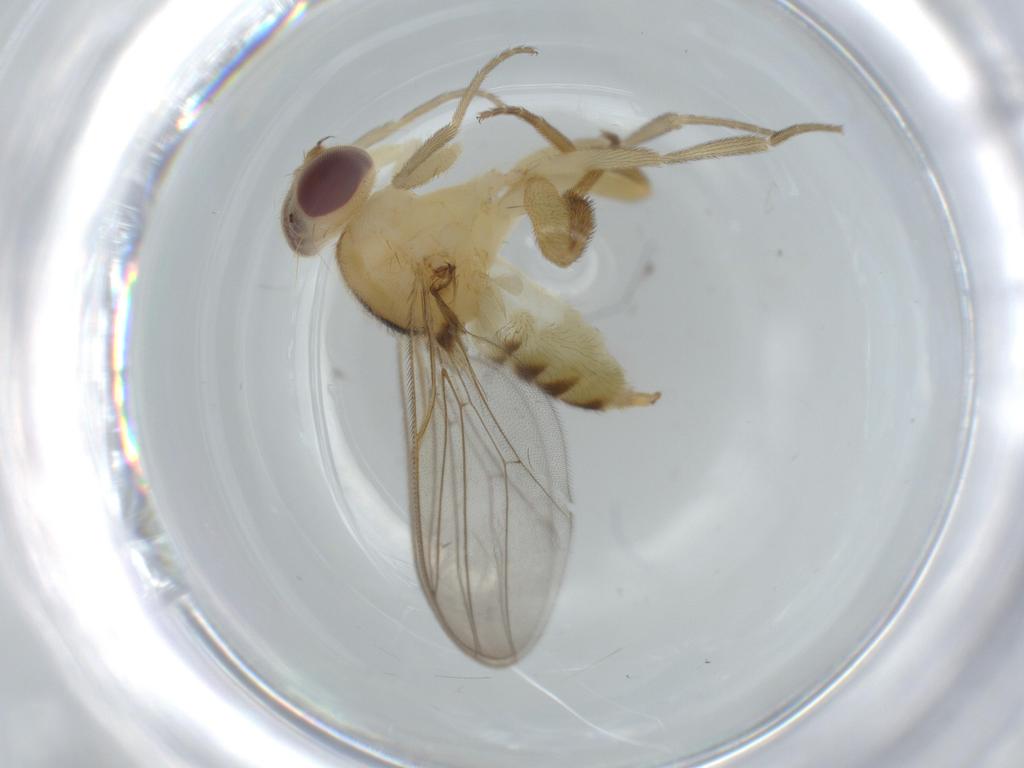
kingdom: Animalia
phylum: Arthropoda
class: Insecta
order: Diptera
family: Chloropidae
